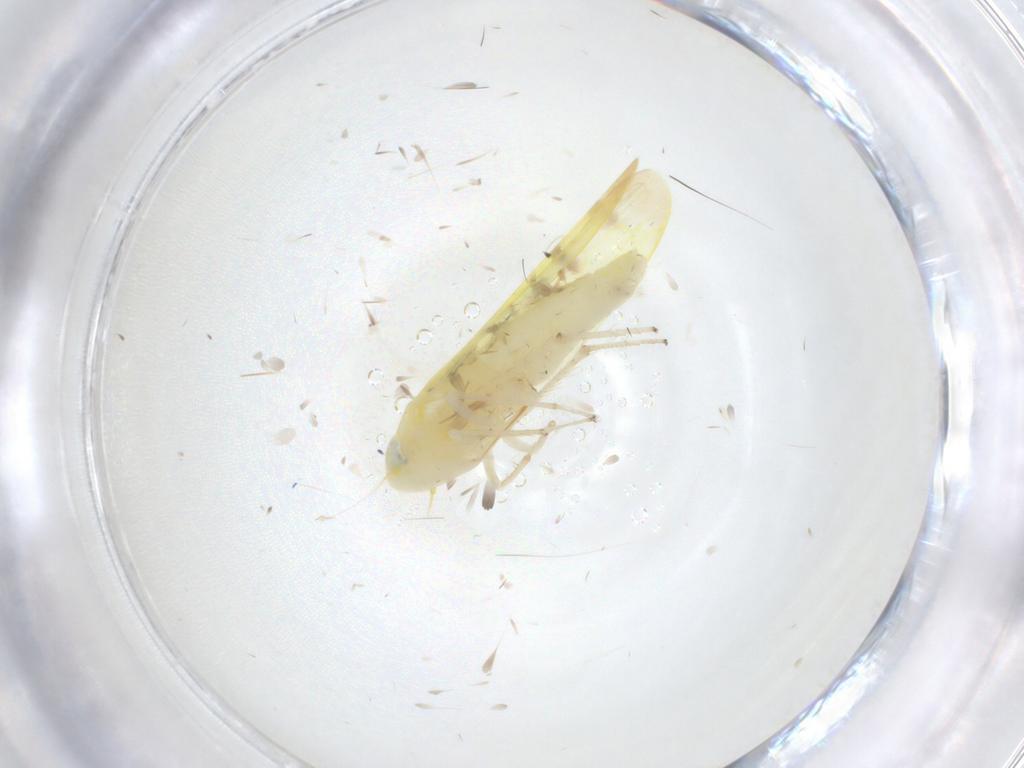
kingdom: Animalia
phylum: Arthropoda
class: Insecta
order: Hemiptera
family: Cicadellidae
